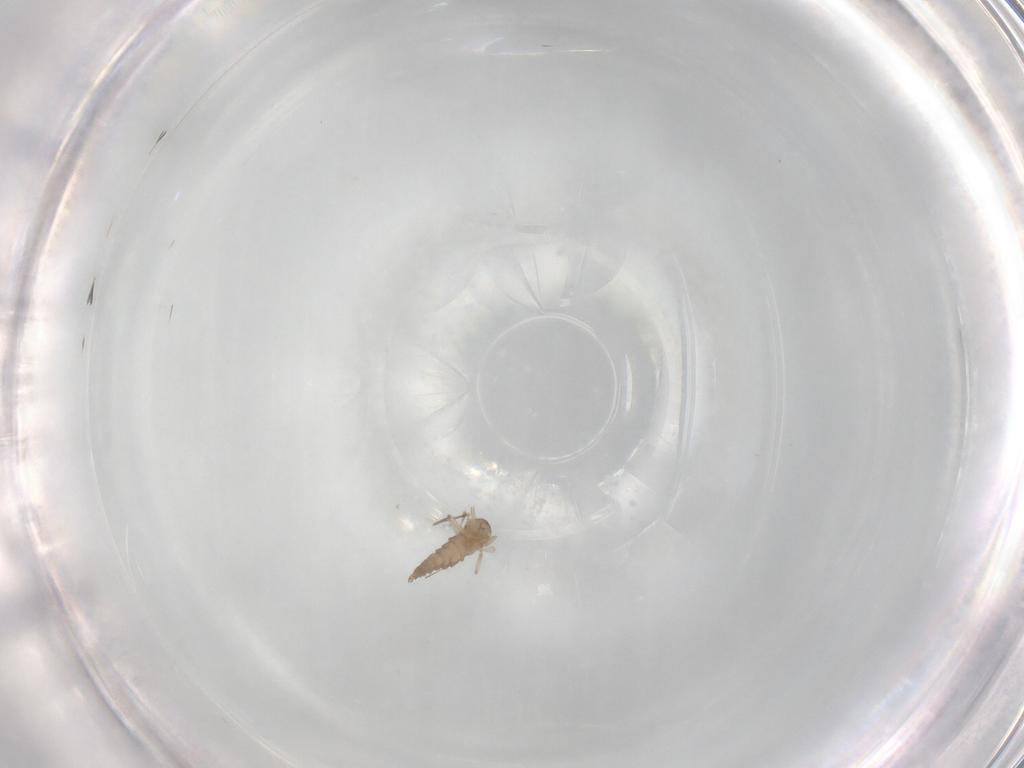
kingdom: Animalia
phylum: Arthropoda
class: Insecta
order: Diptera
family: Cecidomyiidae
